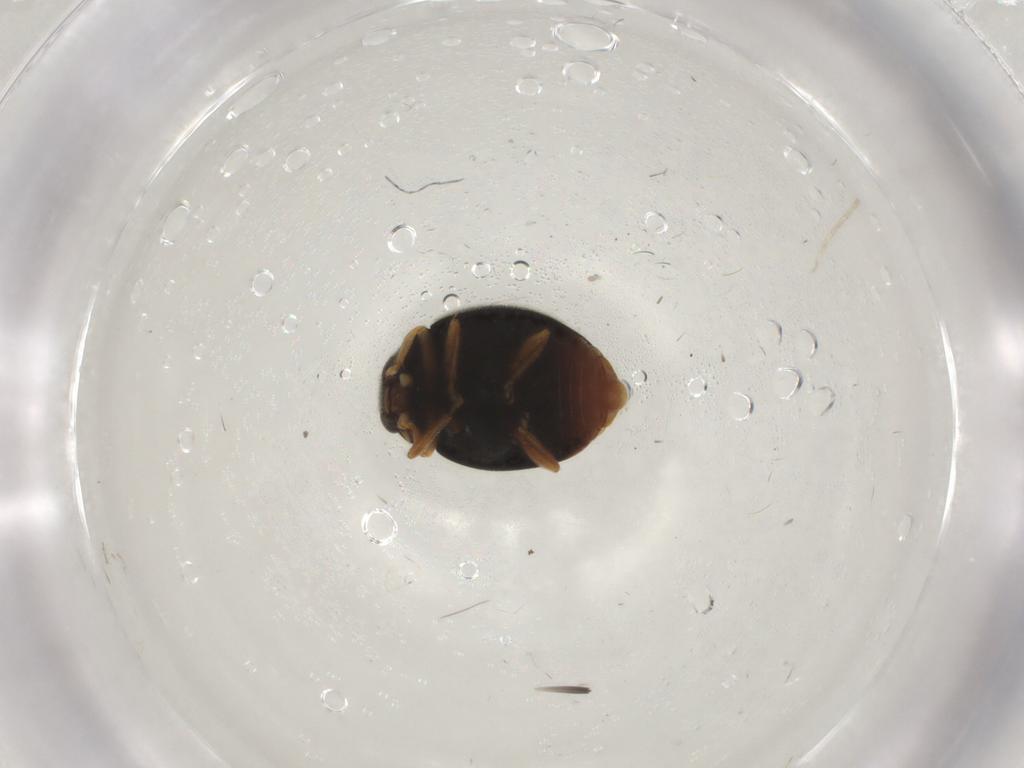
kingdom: Animalia
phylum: Arthropoda
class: Insecta
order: Coleoptera
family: Coccinellidae
